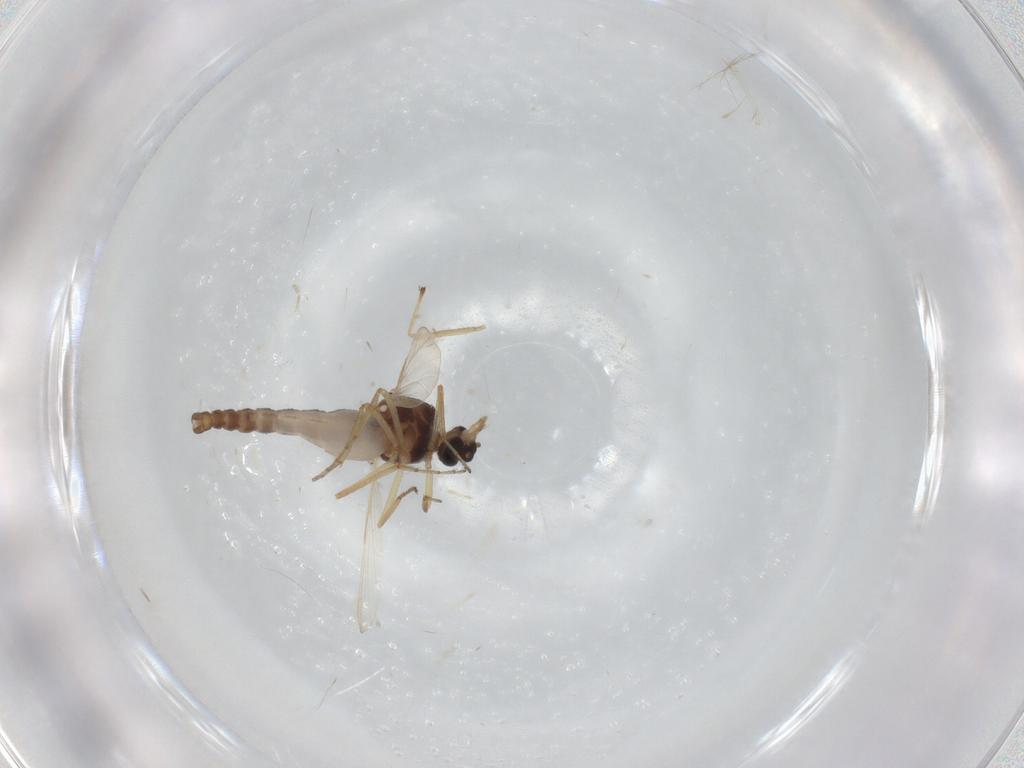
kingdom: Animalia
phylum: Arthropoda
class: Insecta
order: Diptera
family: Ceratopogonidae
